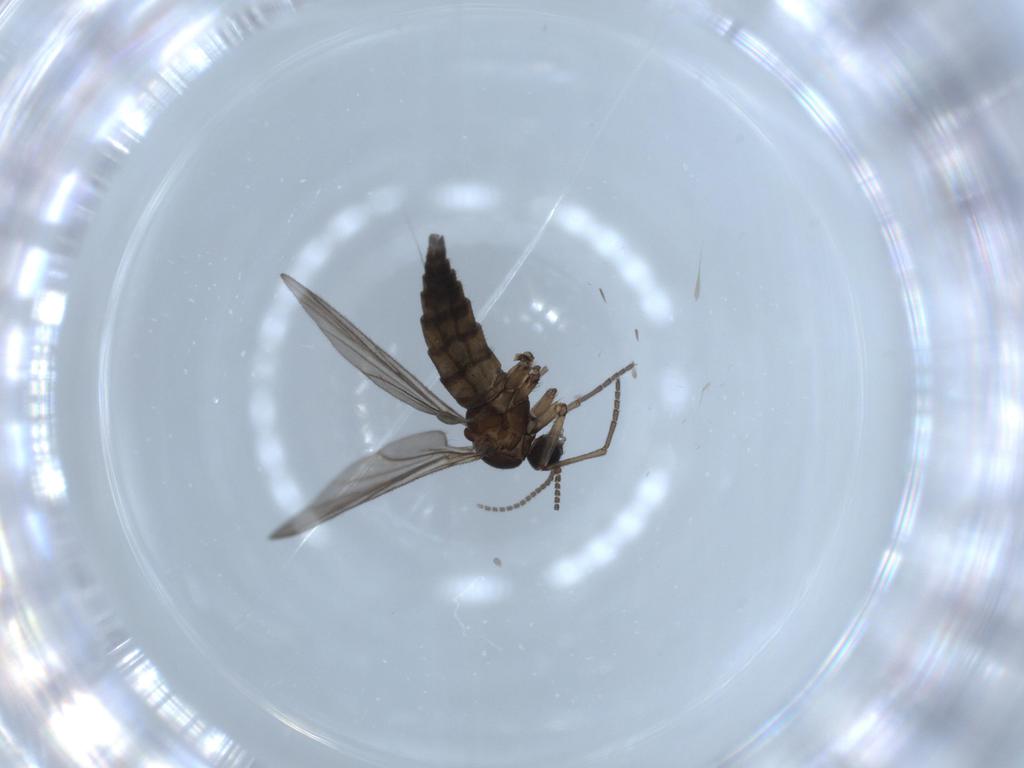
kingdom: Animalia
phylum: Arthropoda
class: Insecta
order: Diptera
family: Sciaridae
